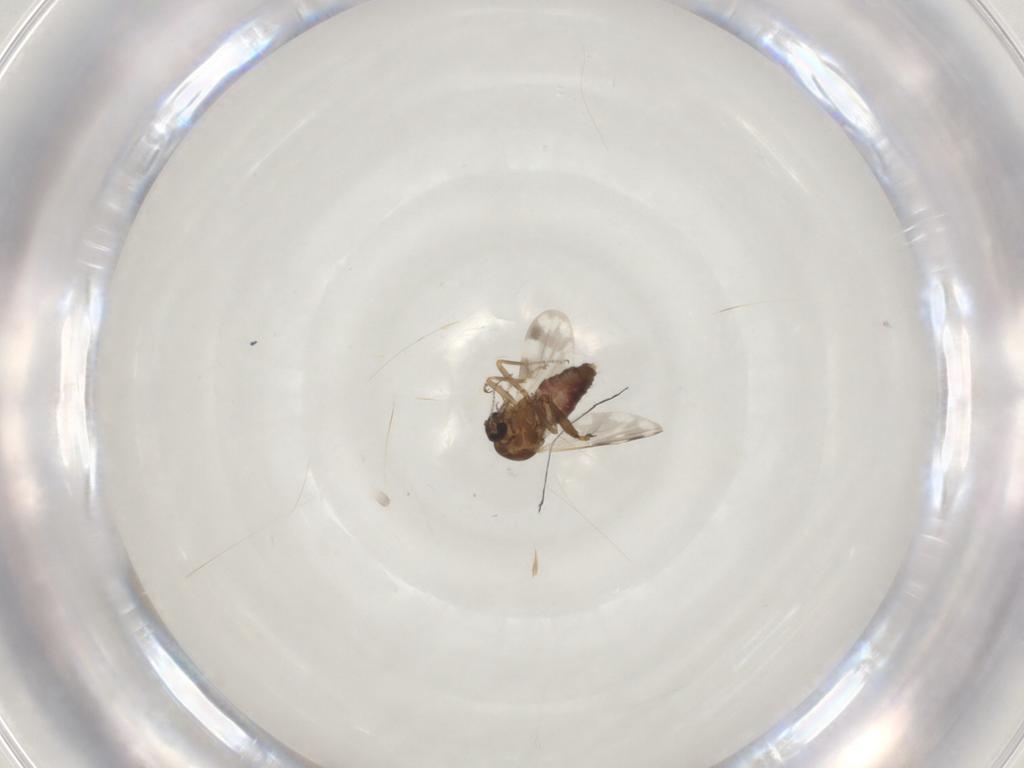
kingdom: Animalia
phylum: Arthropoda
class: Insecta
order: Diptera
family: Ceratopogonidae
